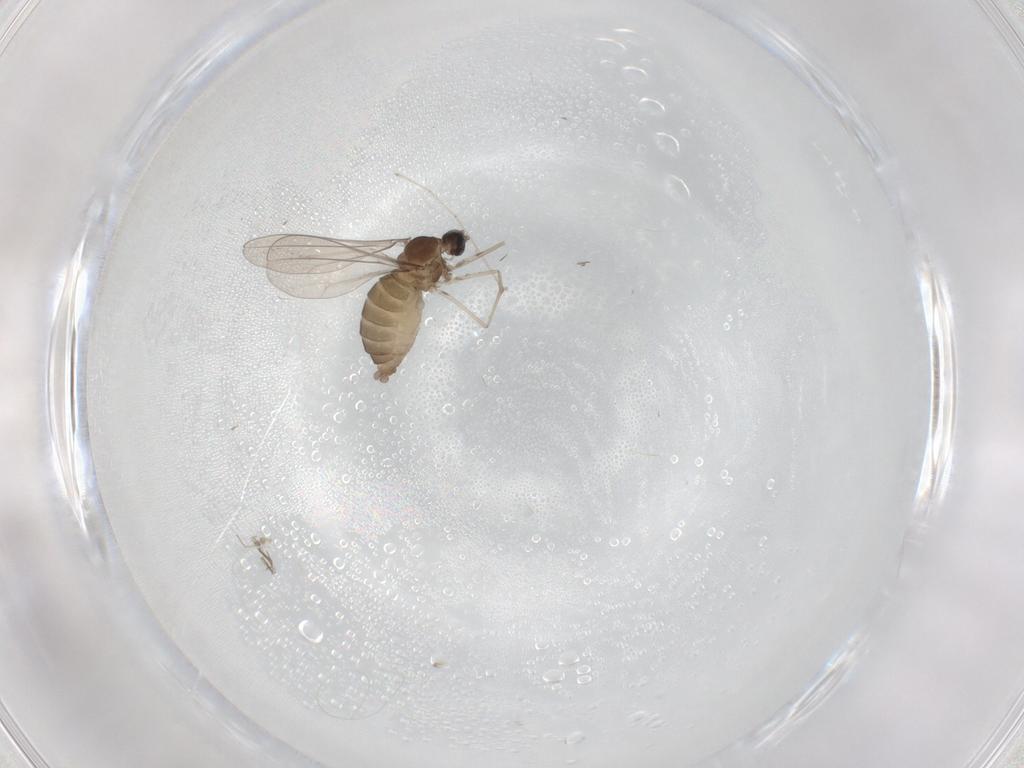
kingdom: Animalia
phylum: Arthropoda
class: Insecta
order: Diptera
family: Cecidomyiidae
